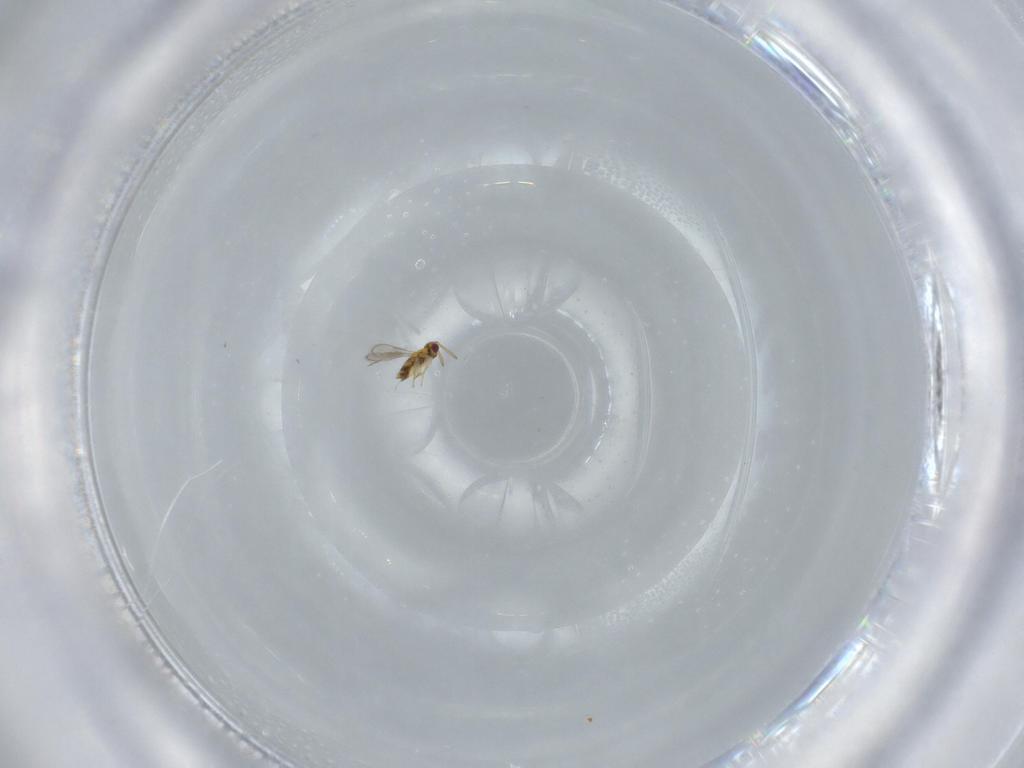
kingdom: Animalia
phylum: Arthropoda
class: Insecta
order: Hymenoptera
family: Aphelinidae
